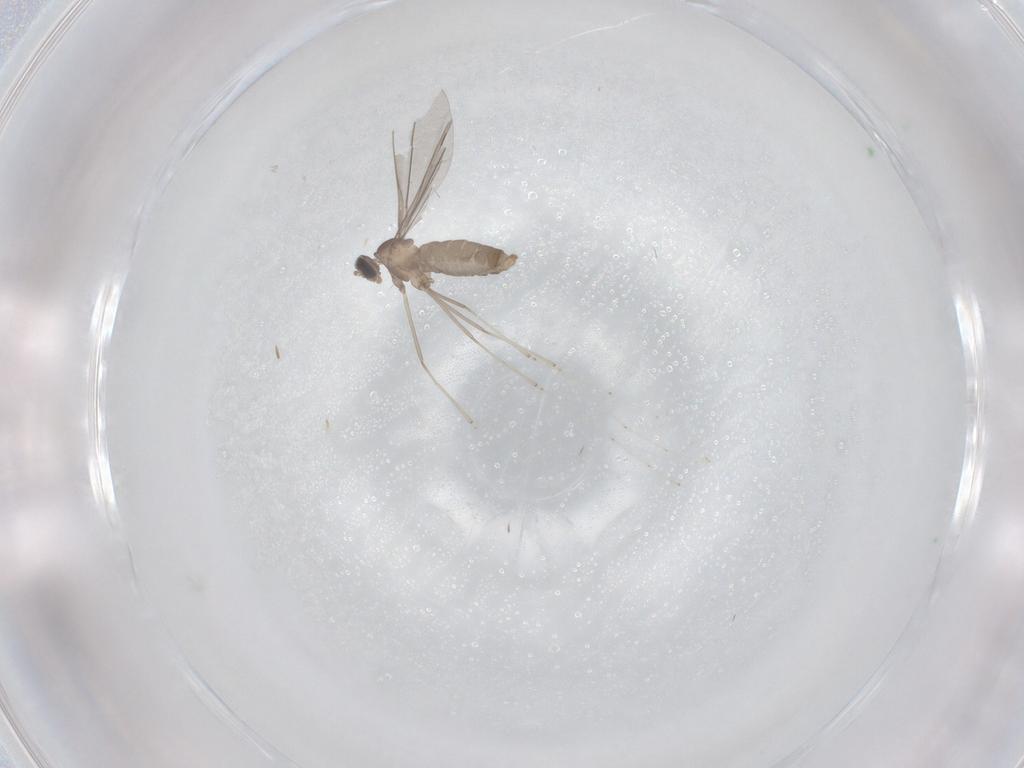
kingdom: Animalia
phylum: Arthropoda
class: Insecta
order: Diptera
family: Cecidomyiidae
